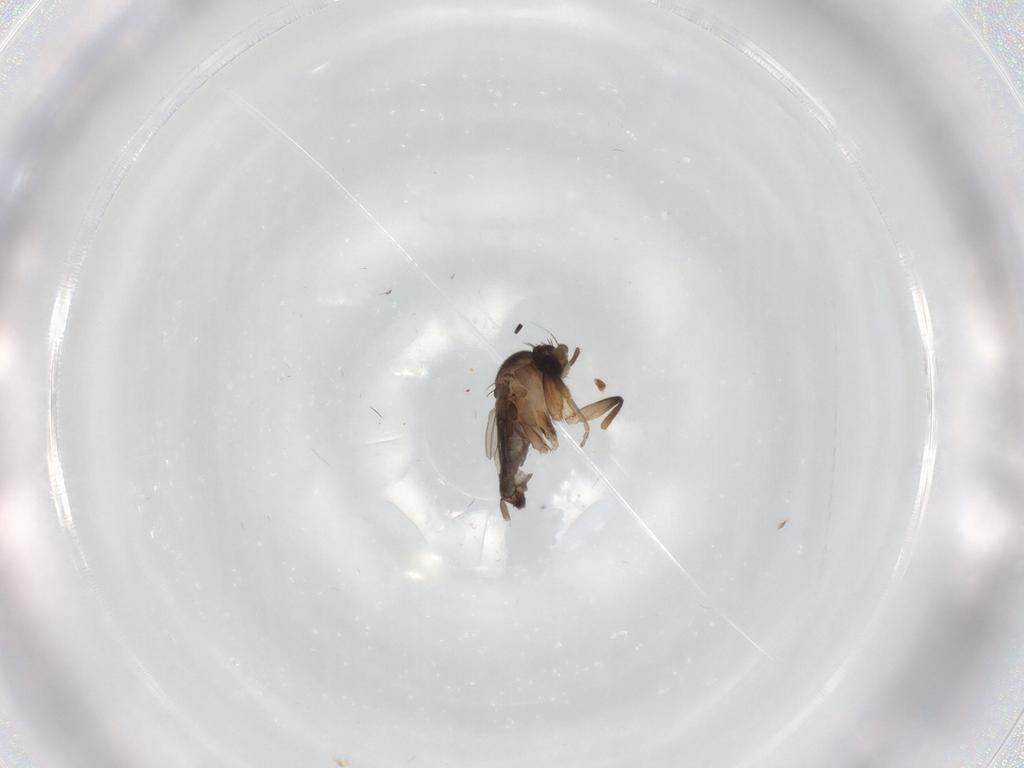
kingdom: Animalia
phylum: Arthropoda
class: Insecta
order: Diptera
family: Phoridae
